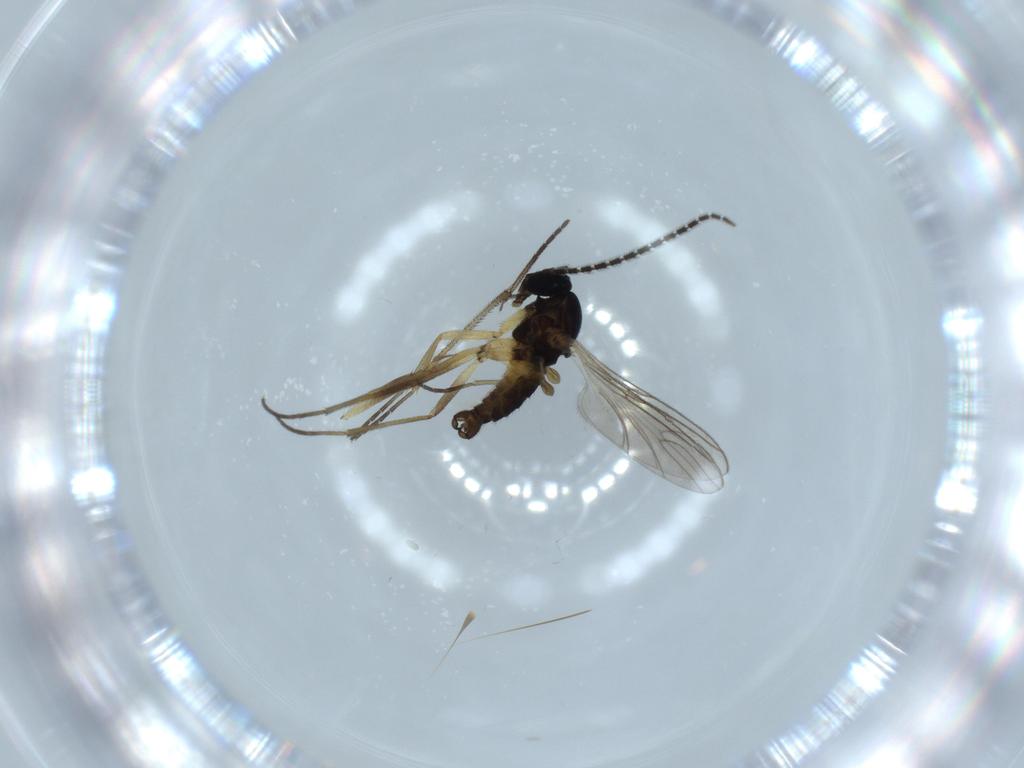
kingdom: Animalia
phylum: Arthropoda
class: Insecta
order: Diptera
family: Sciaridae
